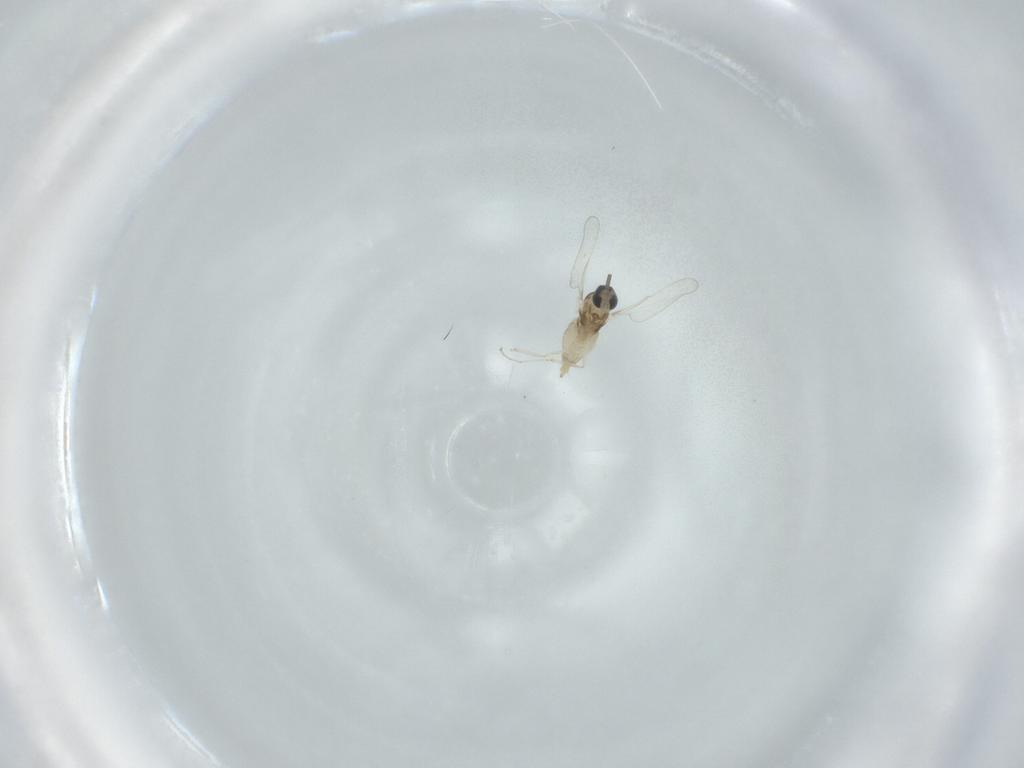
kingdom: Animalia
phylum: Arthropoda
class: Insecta
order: Diptera
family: Cecidomyiidae
